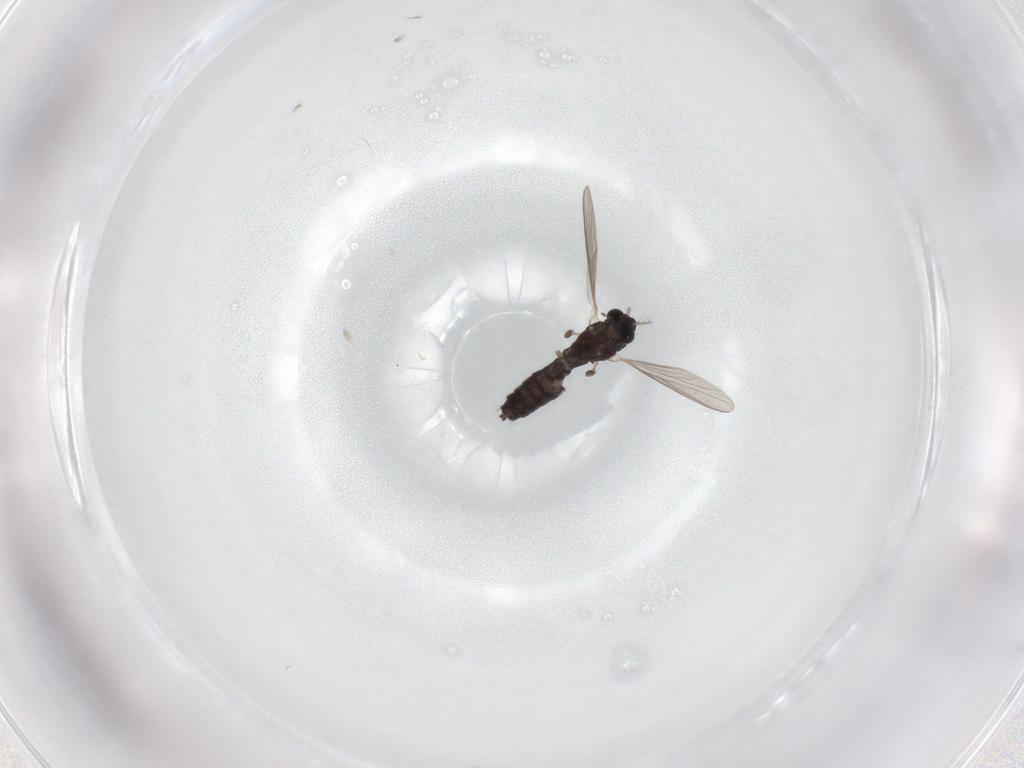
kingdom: Animalia
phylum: Arthropoda
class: Insecta
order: Diptera
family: Chironomidae
